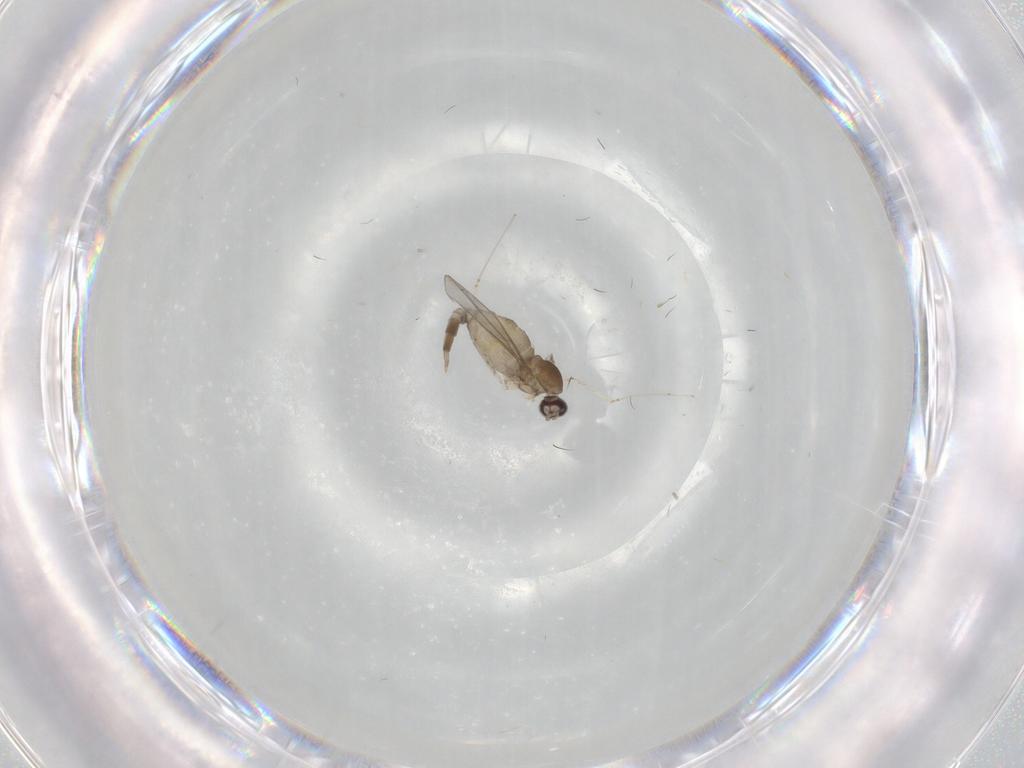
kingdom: Animalia
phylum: Arthropoda
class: Insecta
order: Diptera
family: Cecidomyiidae
